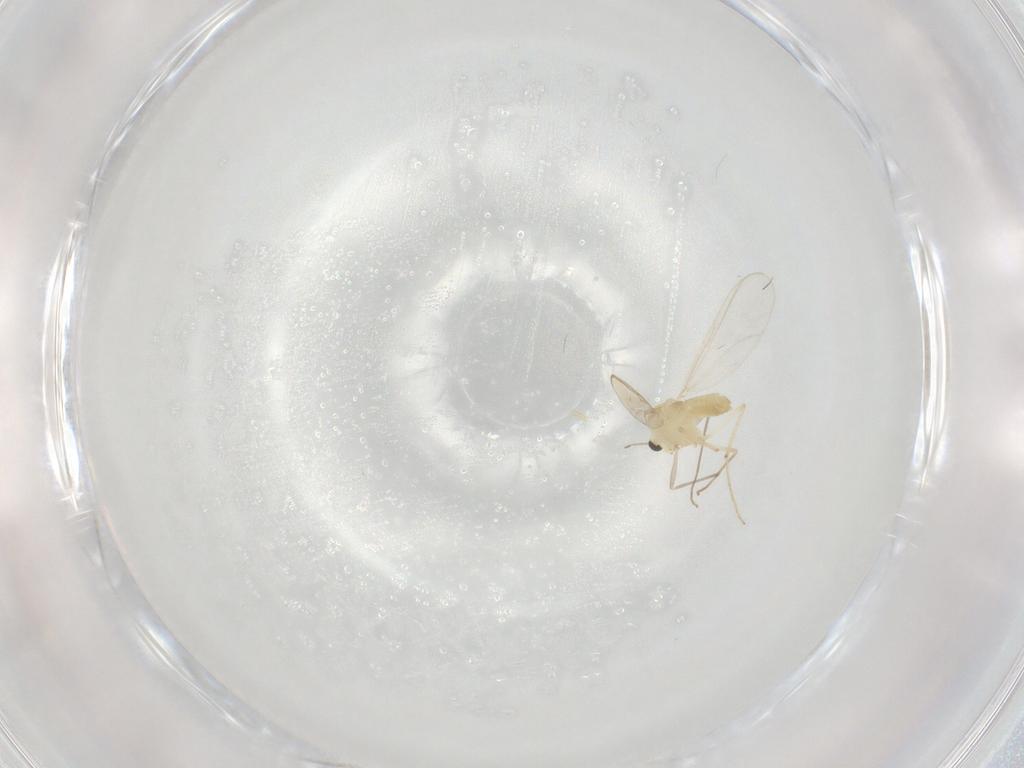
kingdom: Animalia
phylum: Arthropoda
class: Insecta
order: Diptera
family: Chironomidae
